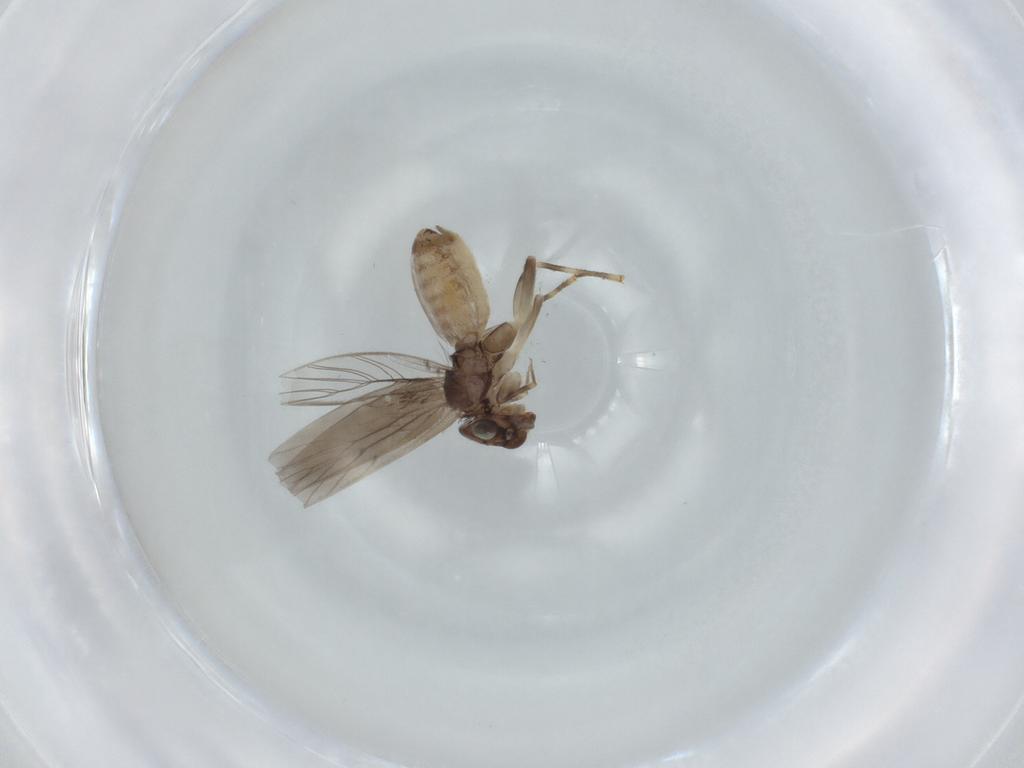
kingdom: Animalia
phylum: Arthropoda
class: Insecta
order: Psocodea
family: Lepidopsocidae
